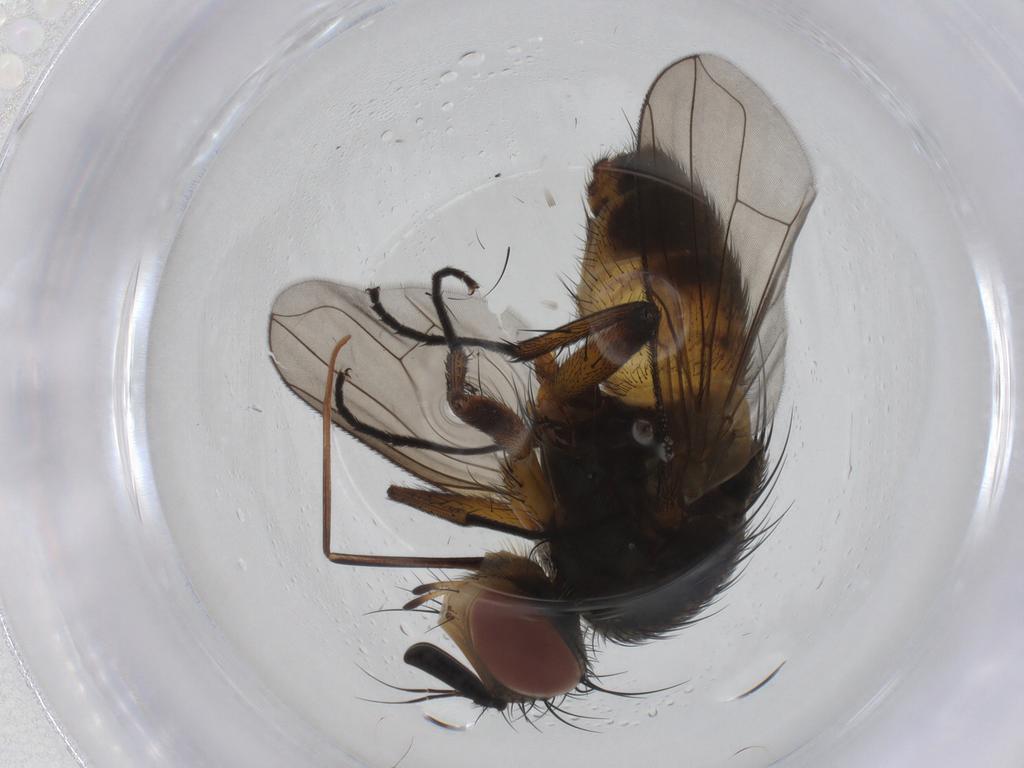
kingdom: Animalia
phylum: Arthropoda
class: Insecta
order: Diptera
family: Tachinidae
